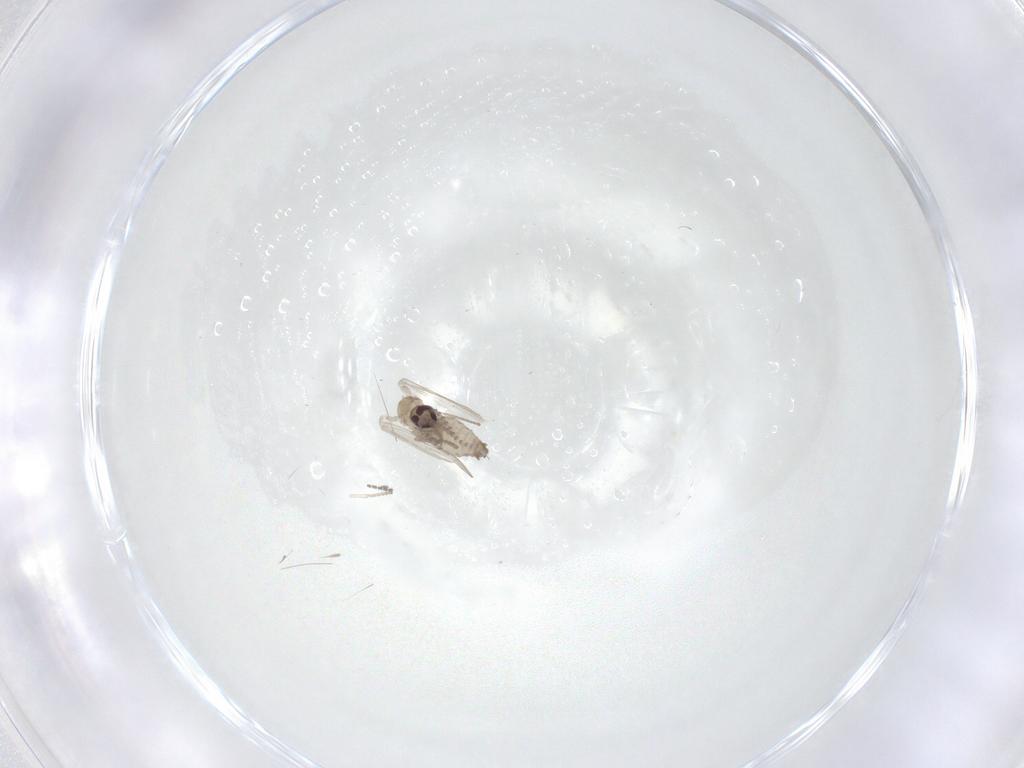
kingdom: Animalia
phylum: Arthropoda
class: Insecta
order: Diptera
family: Psychodidae
